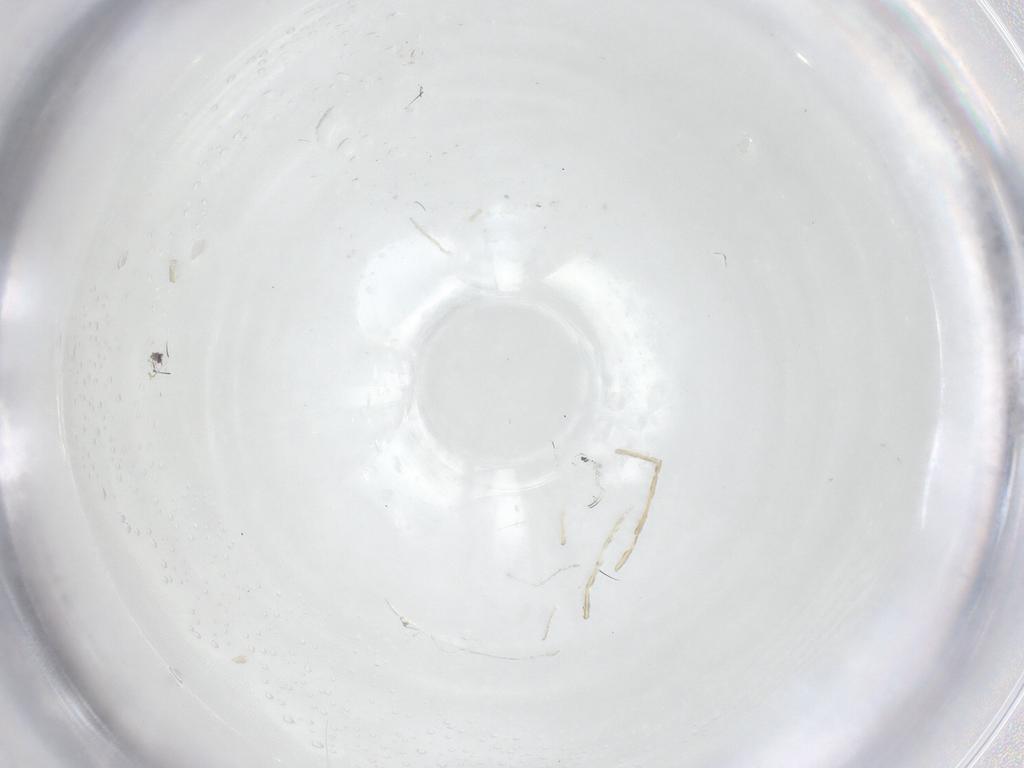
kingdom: Animalia
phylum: Arthropoda
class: Insecta
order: Diptera
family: Chironomidae
